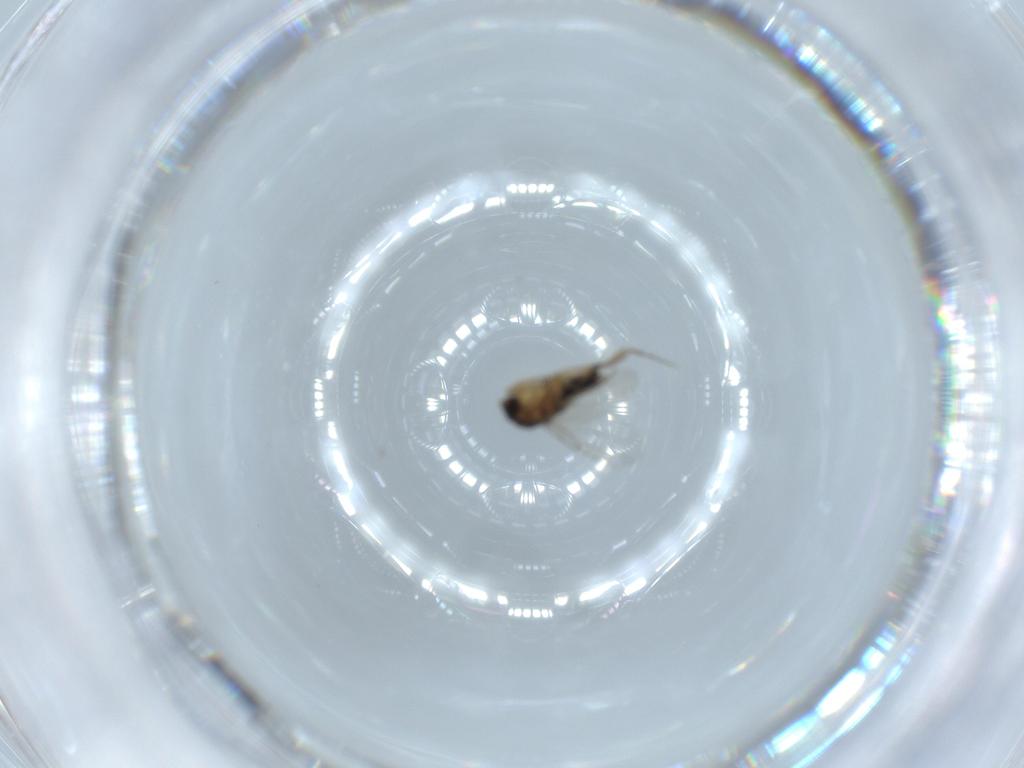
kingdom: Animalia
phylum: Arthropoda
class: Insecta
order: Diptera
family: Phoridae
